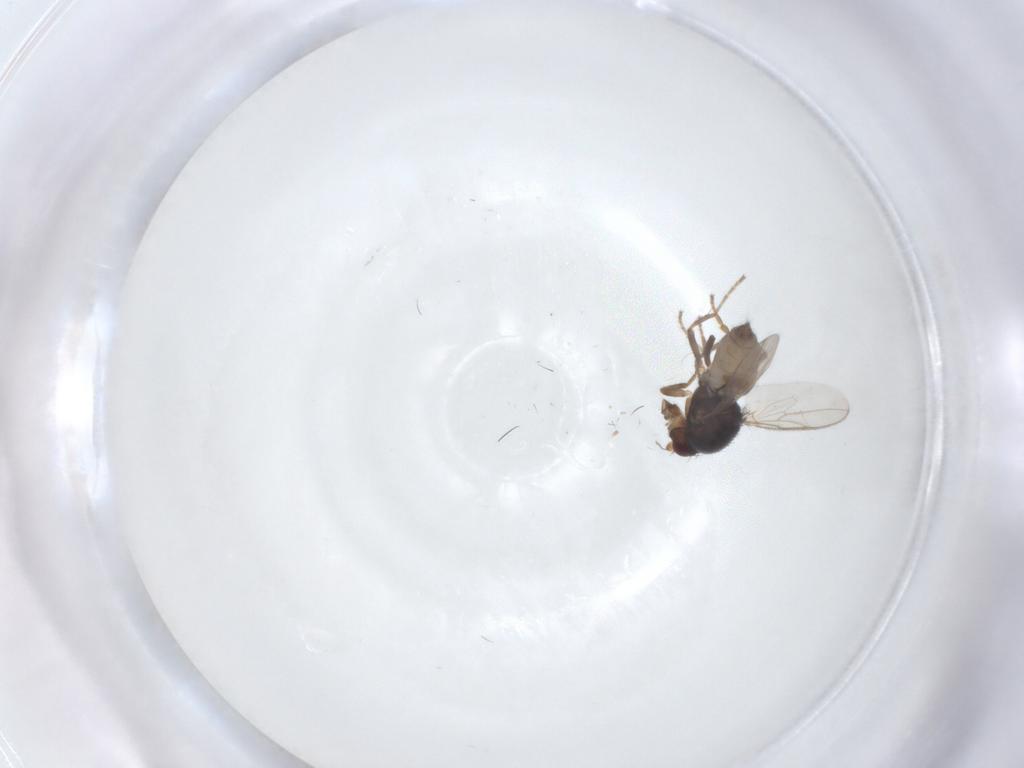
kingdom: Animalia
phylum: Arthropoda
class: Insecta
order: Diptera
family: Sphaeroceridae
